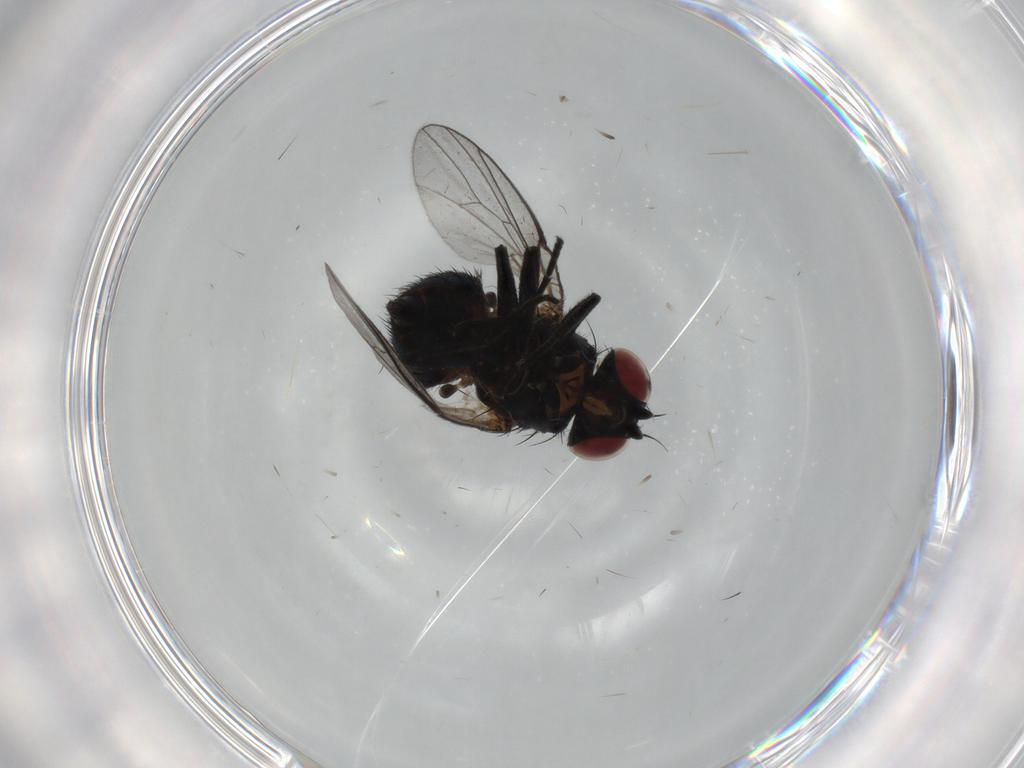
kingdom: Animalia
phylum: Arthropoda
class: Insecta
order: Diptera
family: Agromyzidae
